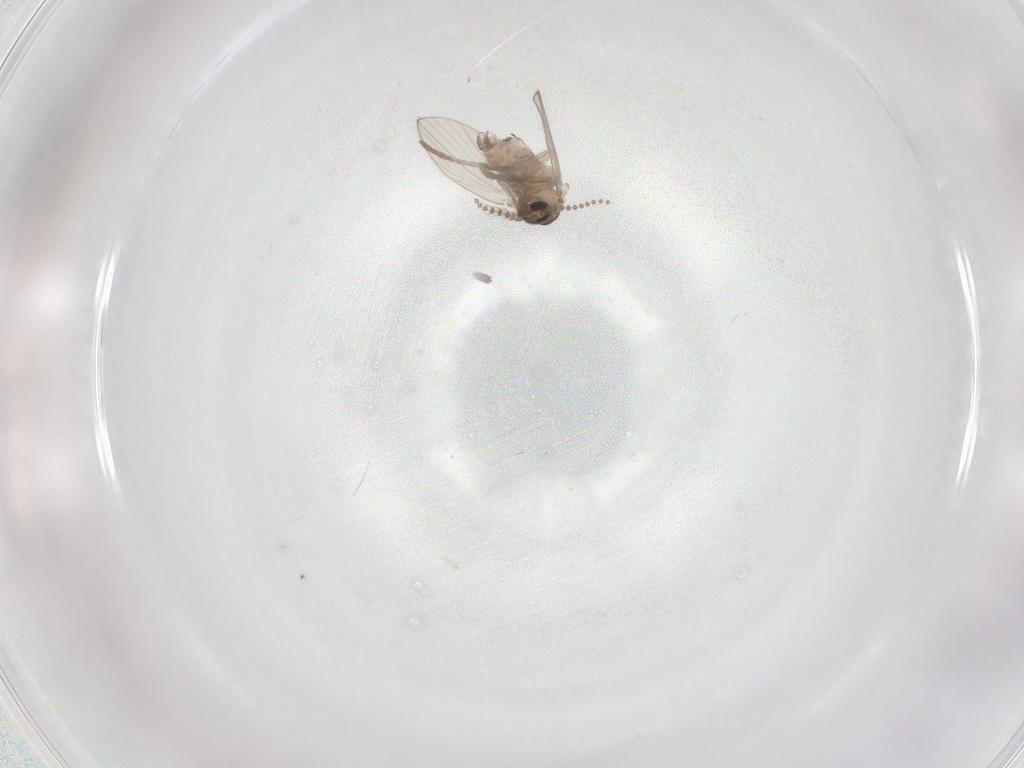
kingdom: Animalia
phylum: Arthropoda
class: Insecta
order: Diptera
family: Psychodidae
